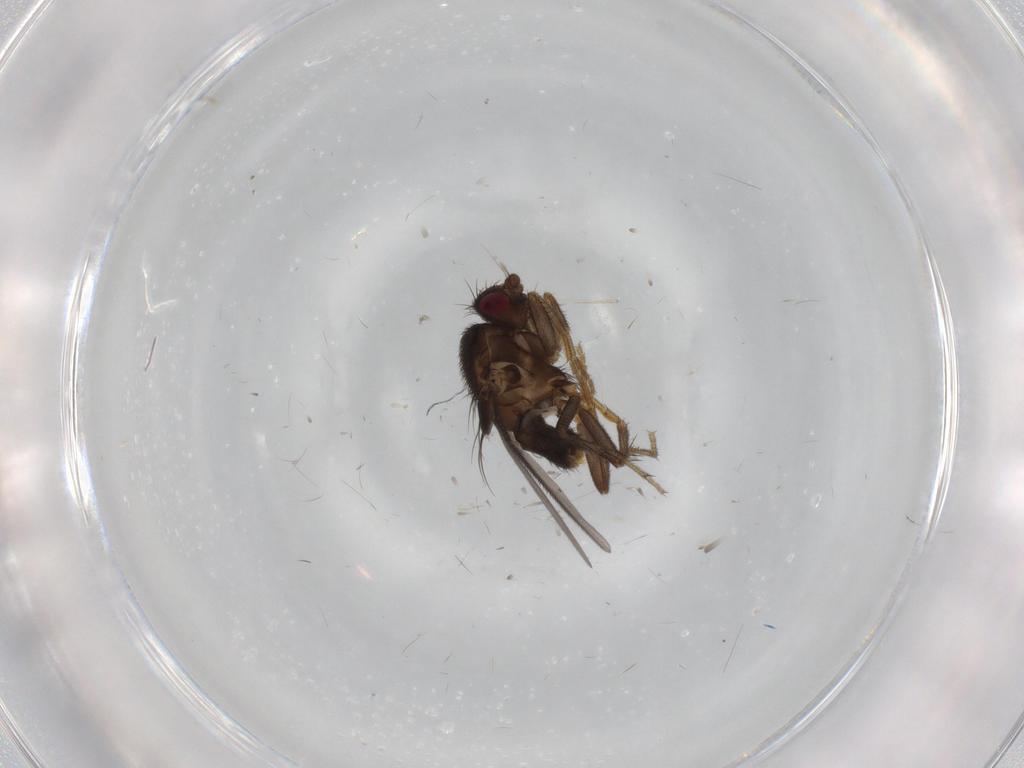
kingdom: Animalia
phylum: Arthropoda
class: Insecta
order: Diptera
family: Sphaeroceridae
